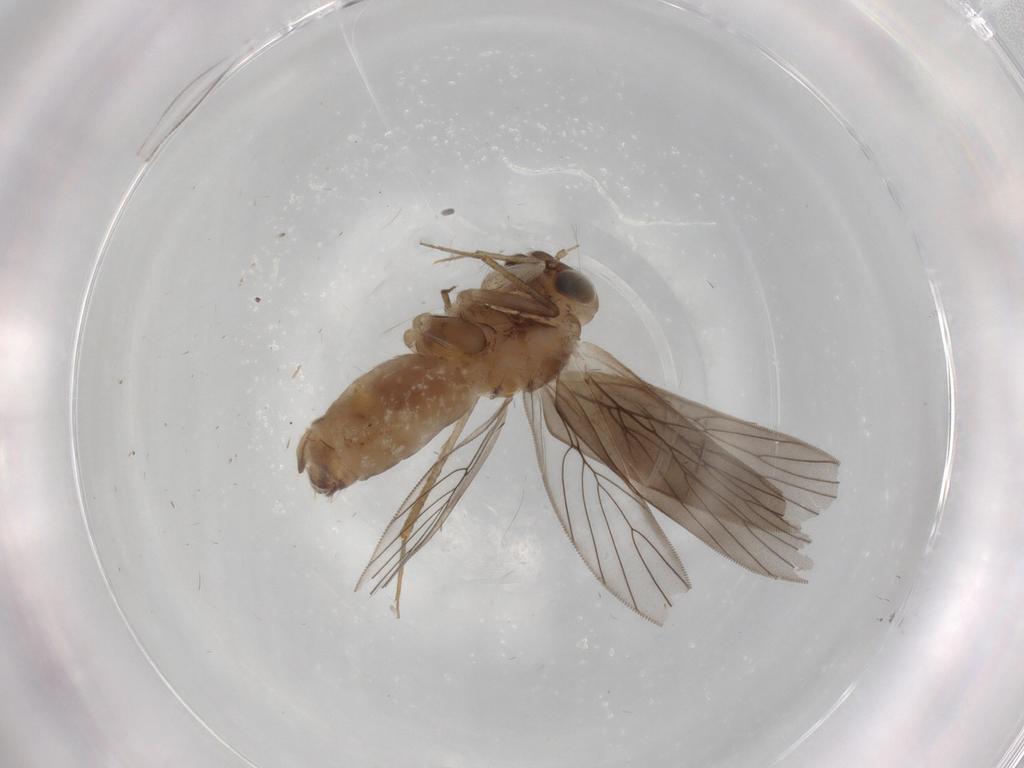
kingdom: Animalia
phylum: Arthropoda
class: Insecta
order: Psocodea
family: Lepidopsocidae
